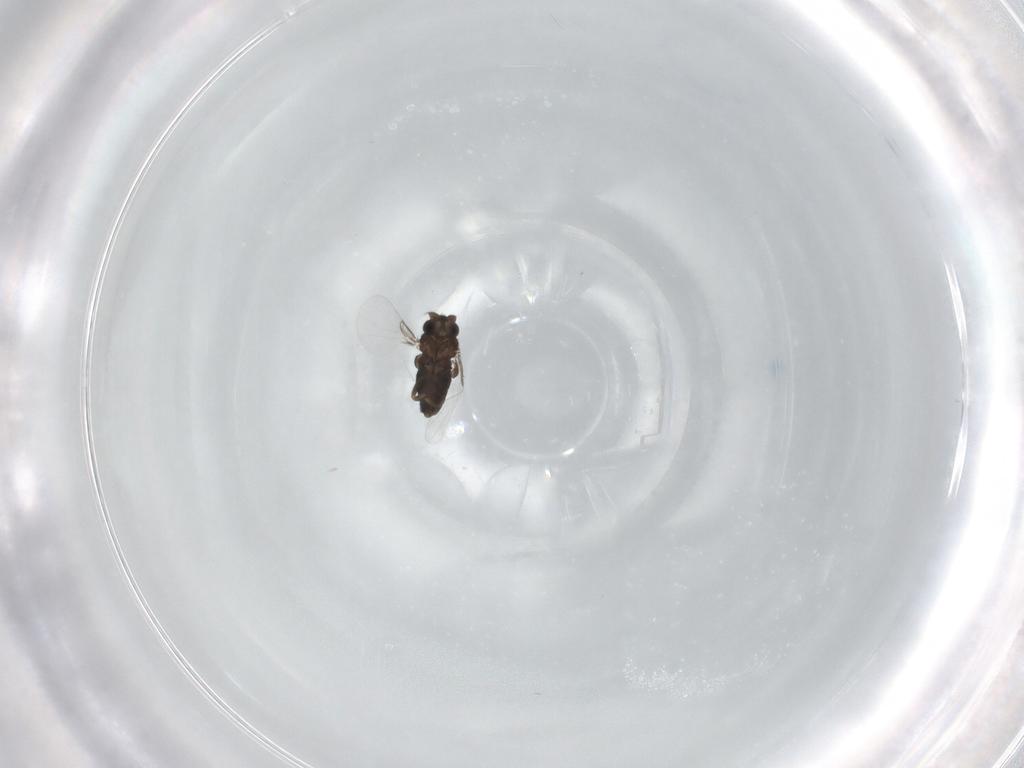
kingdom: Animalia
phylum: Arthropoda
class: Insecta
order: Diptera
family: Phoridae
